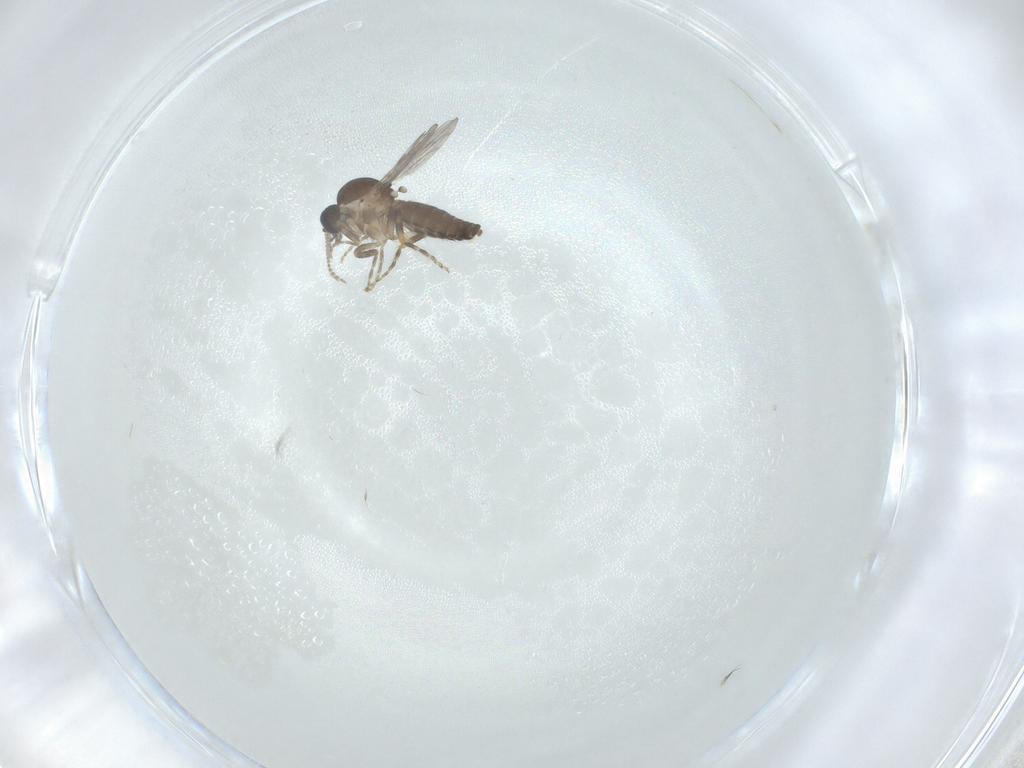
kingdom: Animalia
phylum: Arthropoda
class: Insecta
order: Diptera
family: Ceratopogonidae
